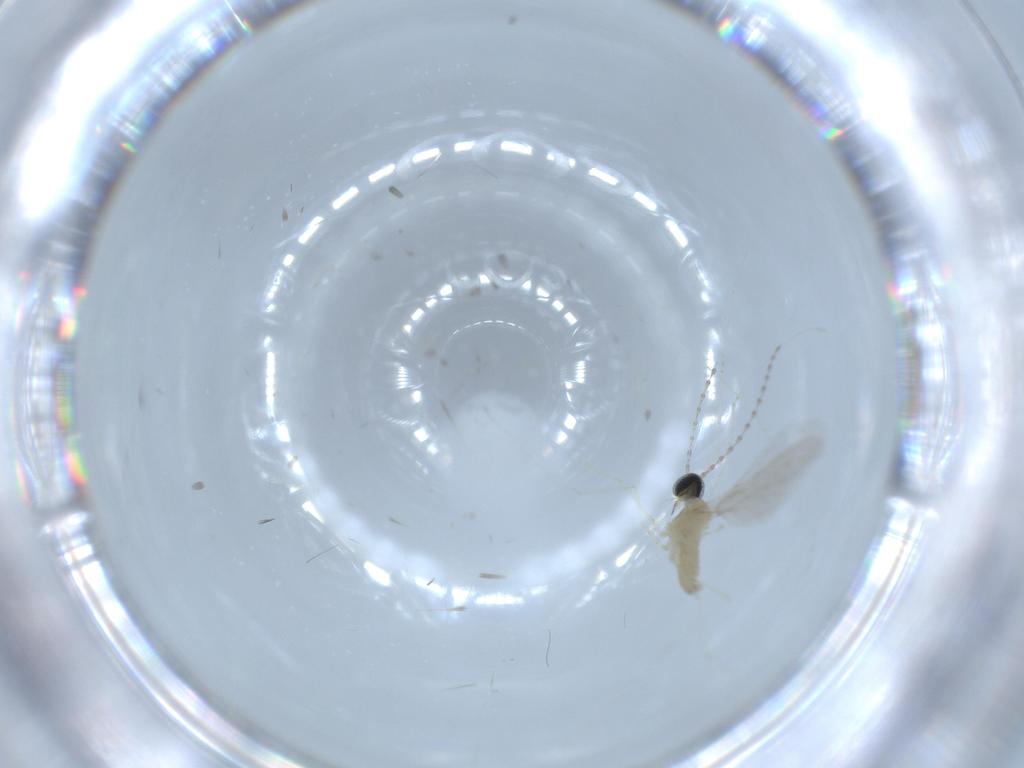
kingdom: Animalia
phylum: Arthropoda
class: Insecta
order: Diptera
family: Phoridae
